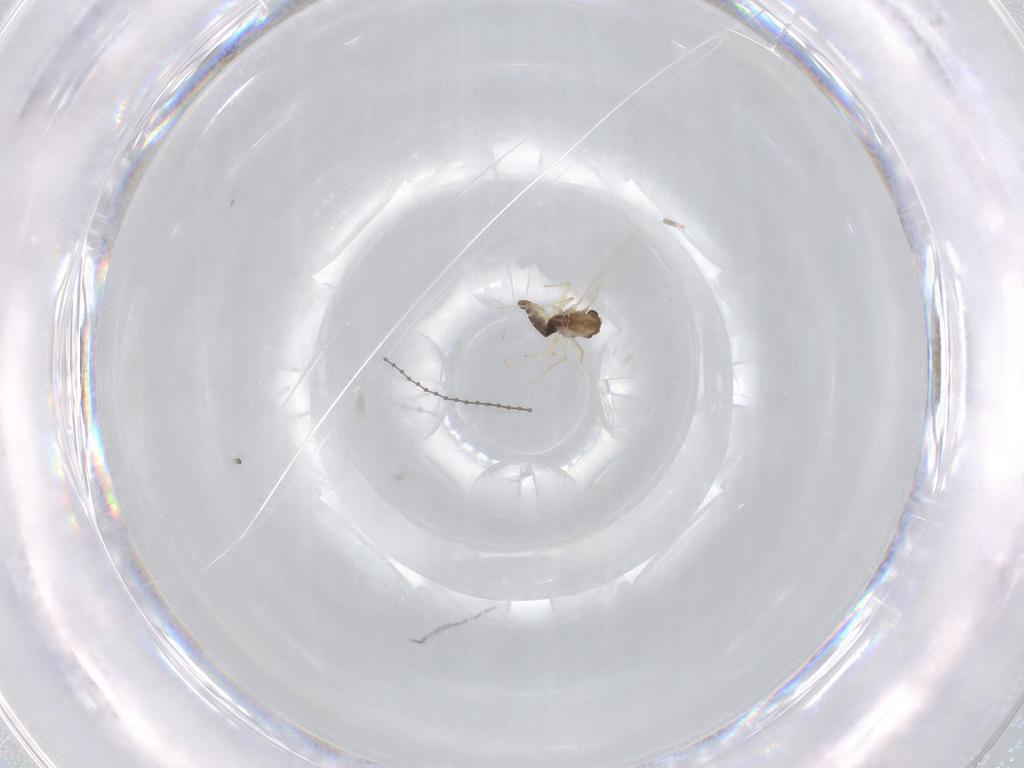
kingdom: Animalia
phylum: Arthropoda
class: Insecta
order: Diptera
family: Chironomidae
